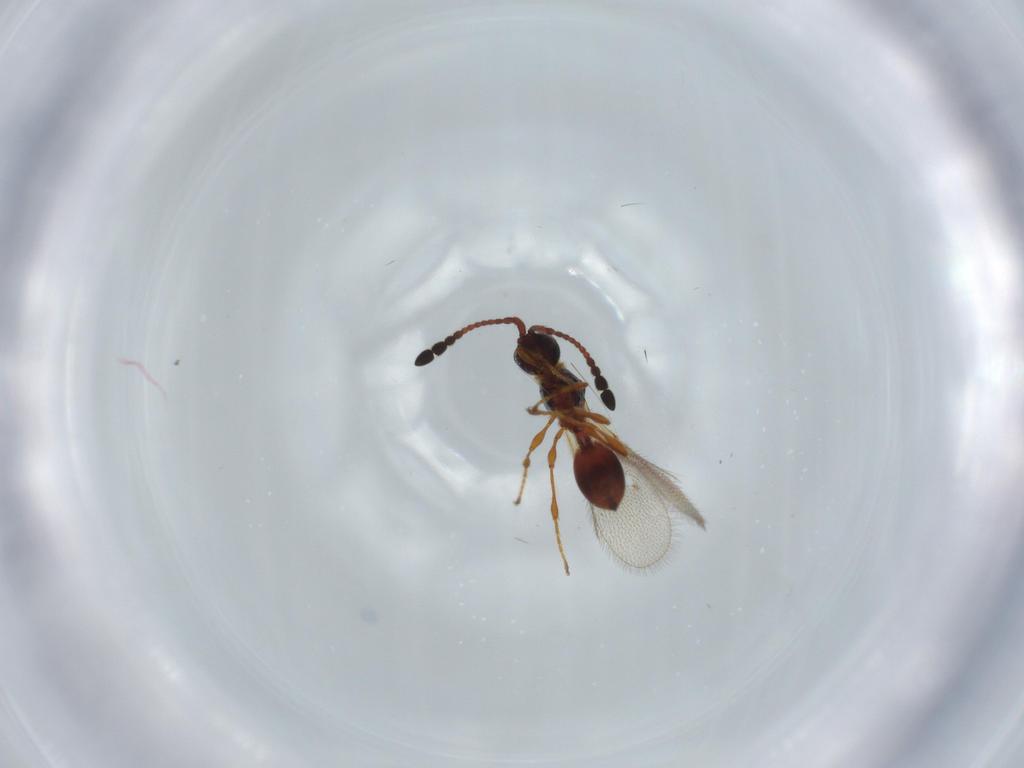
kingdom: Animalia
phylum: Arthropoda
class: Insecta
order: Hymenoptera
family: Diapriidae
